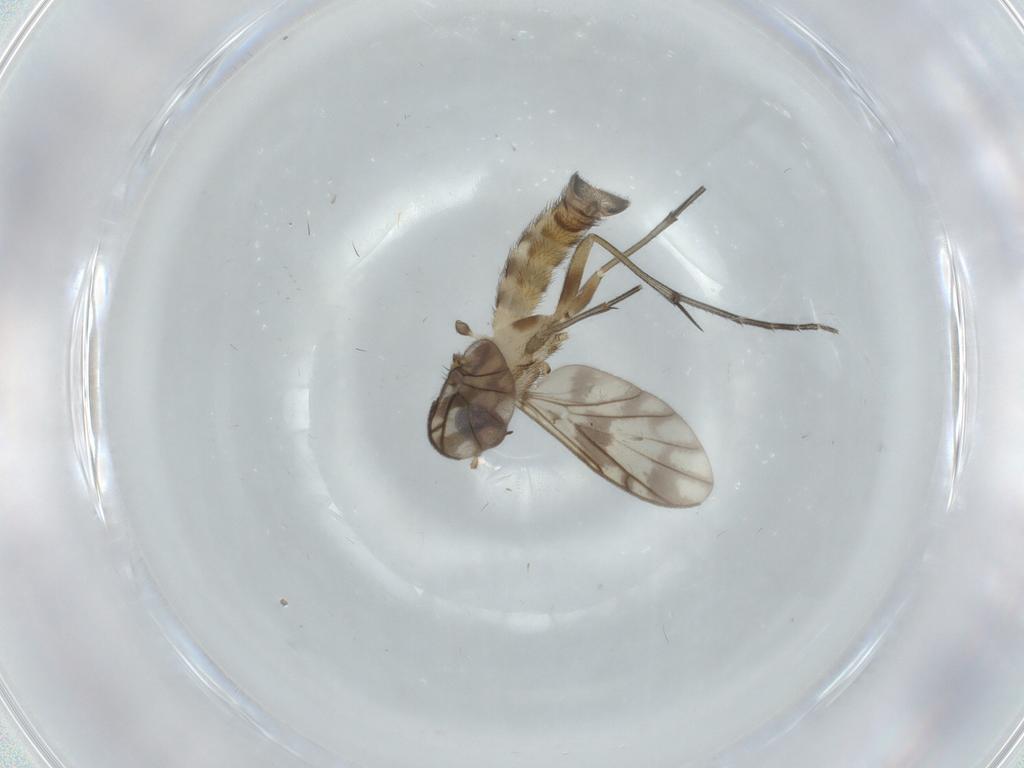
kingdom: Animalia
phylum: Arthropoda
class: Insecta
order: Diptera
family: Keroplatidae
